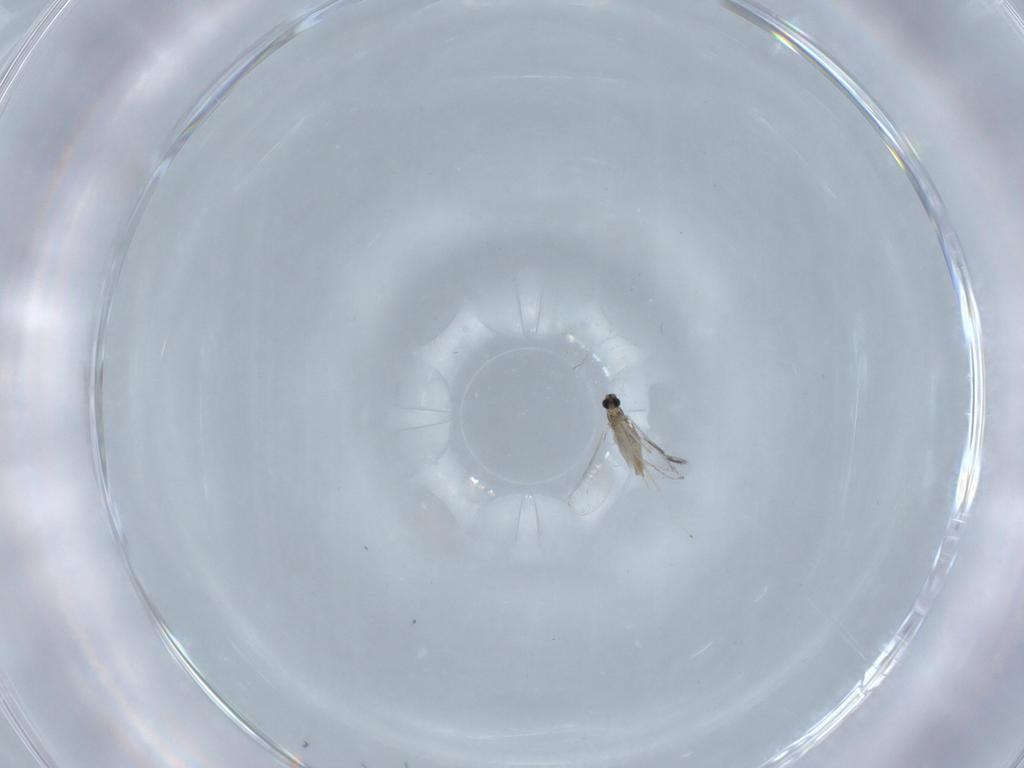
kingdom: Animalia
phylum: Arthropoda
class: Insecta
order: Diptera
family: Cecidomyiidae
